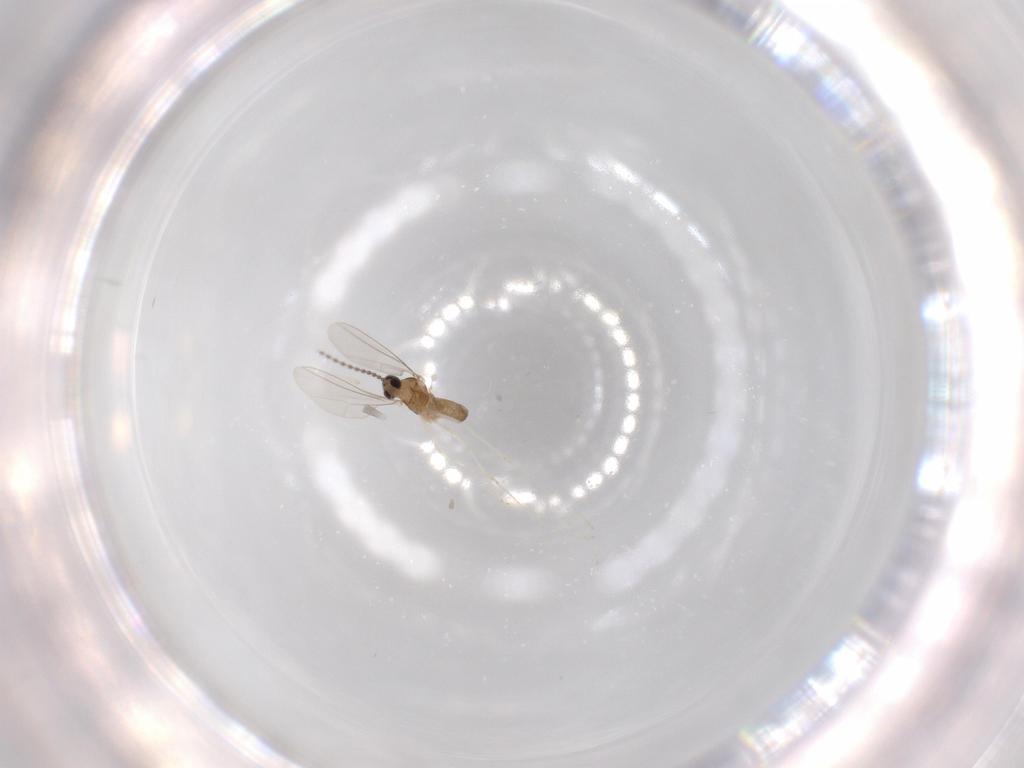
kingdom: Animalia
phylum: Arthropoda
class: Insecta
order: Diptera
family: Cecidomyiidae
